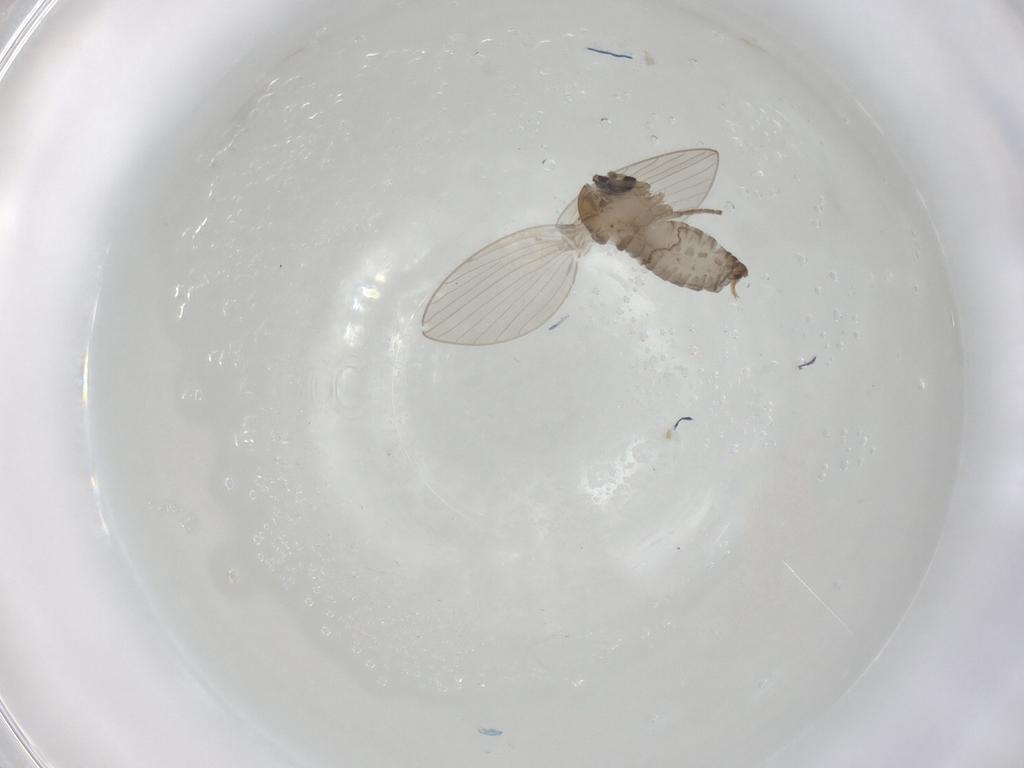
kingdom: Animalia
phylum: Arthropoda
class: Insecta
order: Diptera
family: Psychodidae
